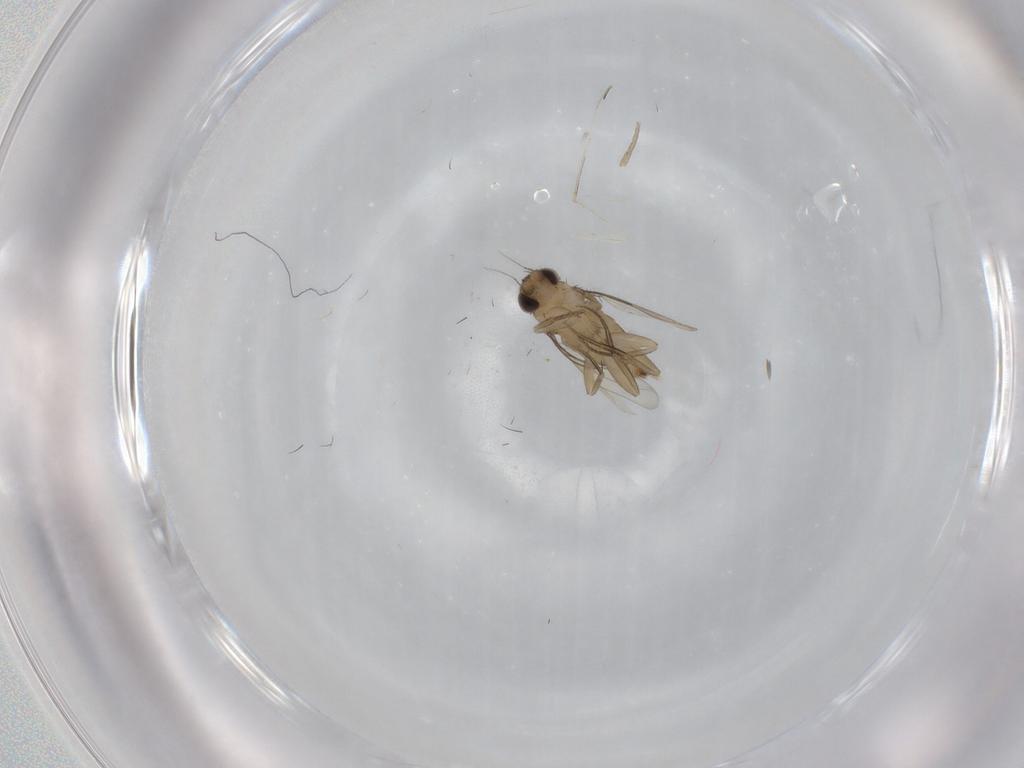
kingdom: Animalia
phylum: Arthropoda
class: Insecta
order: Diptera
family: Phoridae
